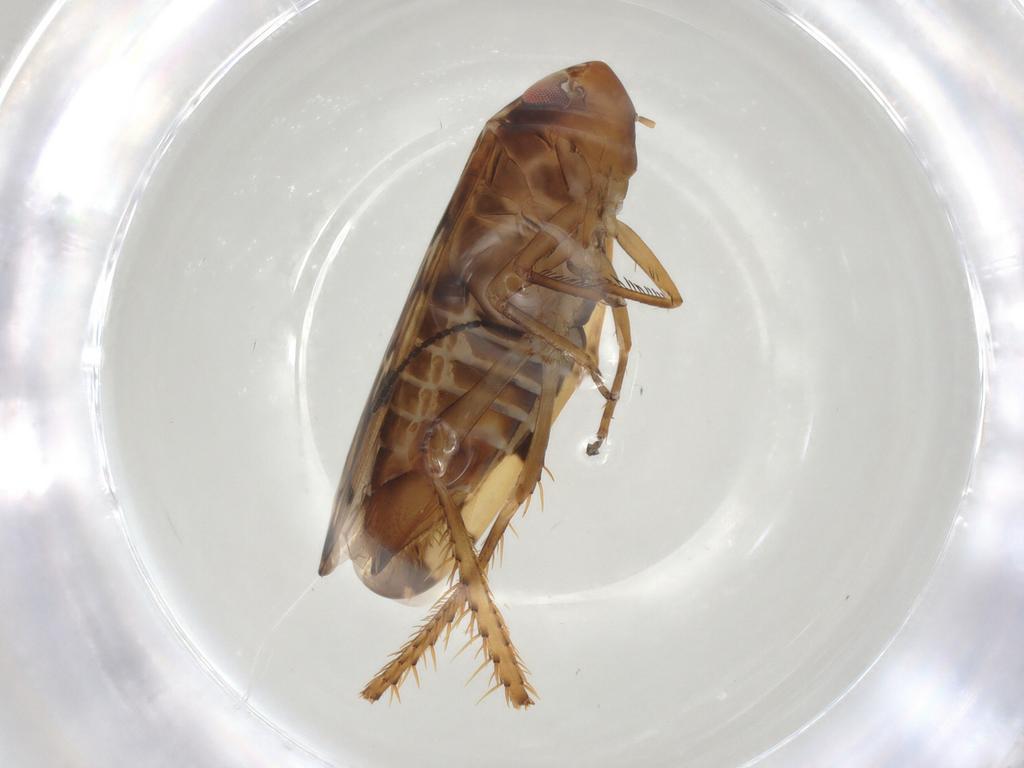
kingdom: Animalia
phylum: Arthropoda
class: Insecta
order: Hemiptera
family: Cicadellidae
